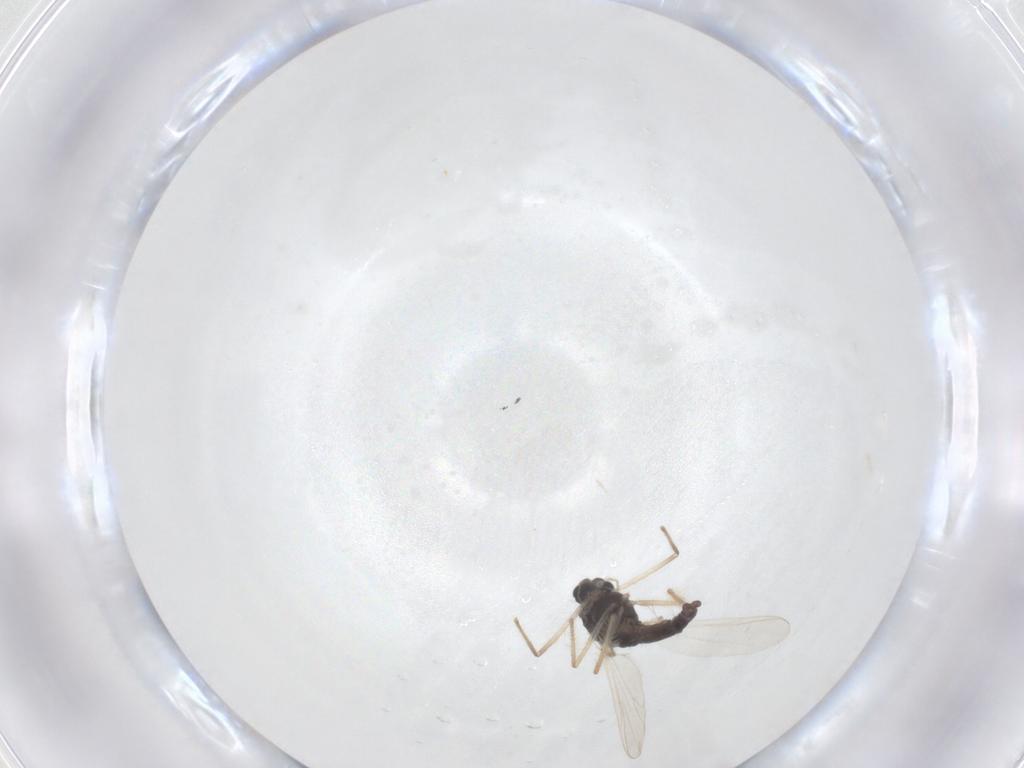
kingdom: Animalia
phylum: Arthropoda
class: Insecta
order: Diptera
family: Chironomidae
